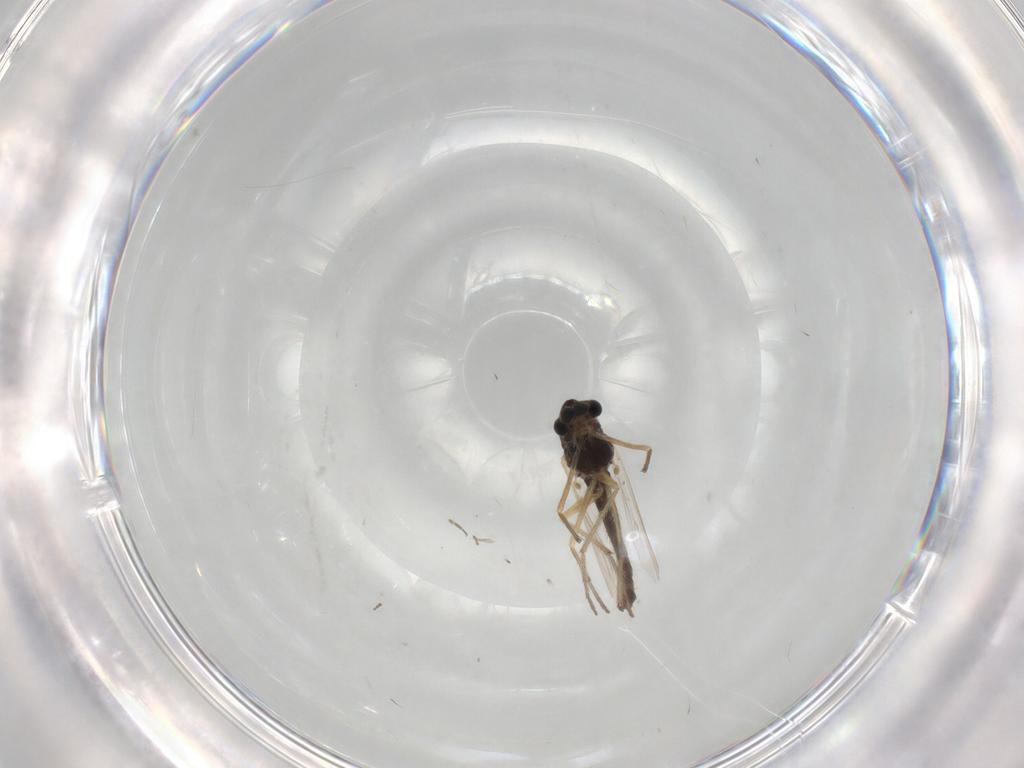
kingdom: Animalia
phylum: Arthropoda
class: Insecta
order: Diptera
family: Chironomidae
